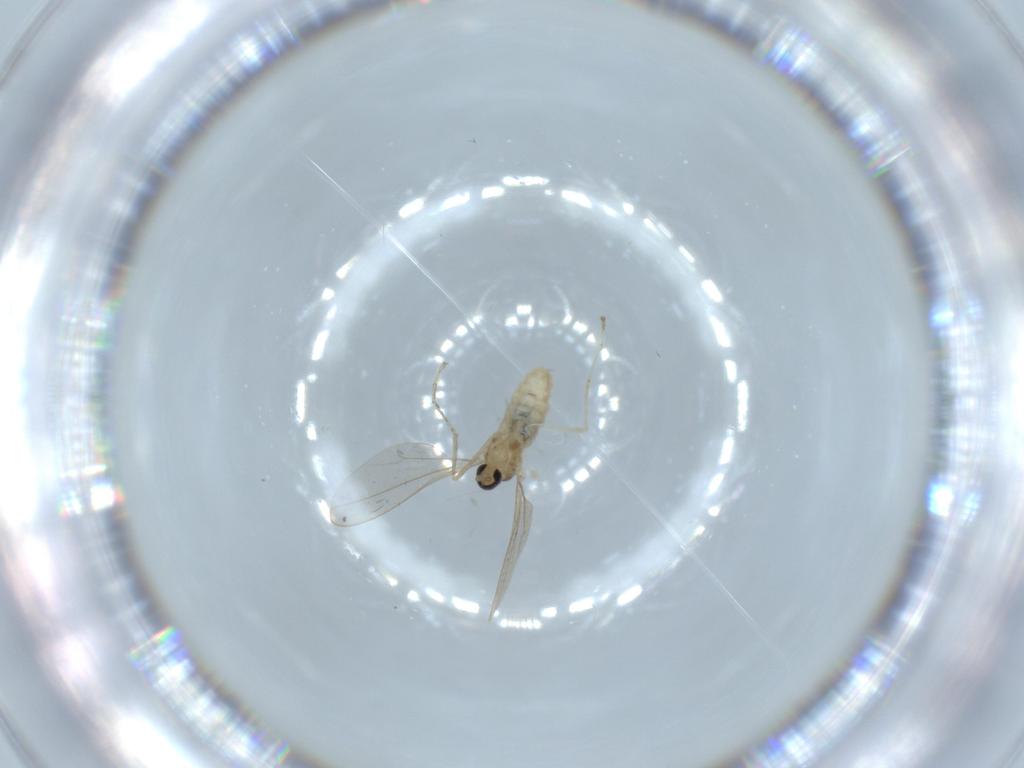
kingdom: Animalia
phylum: Arthropoda
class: Insecta
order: Diptera
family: Cecidomyiidae
